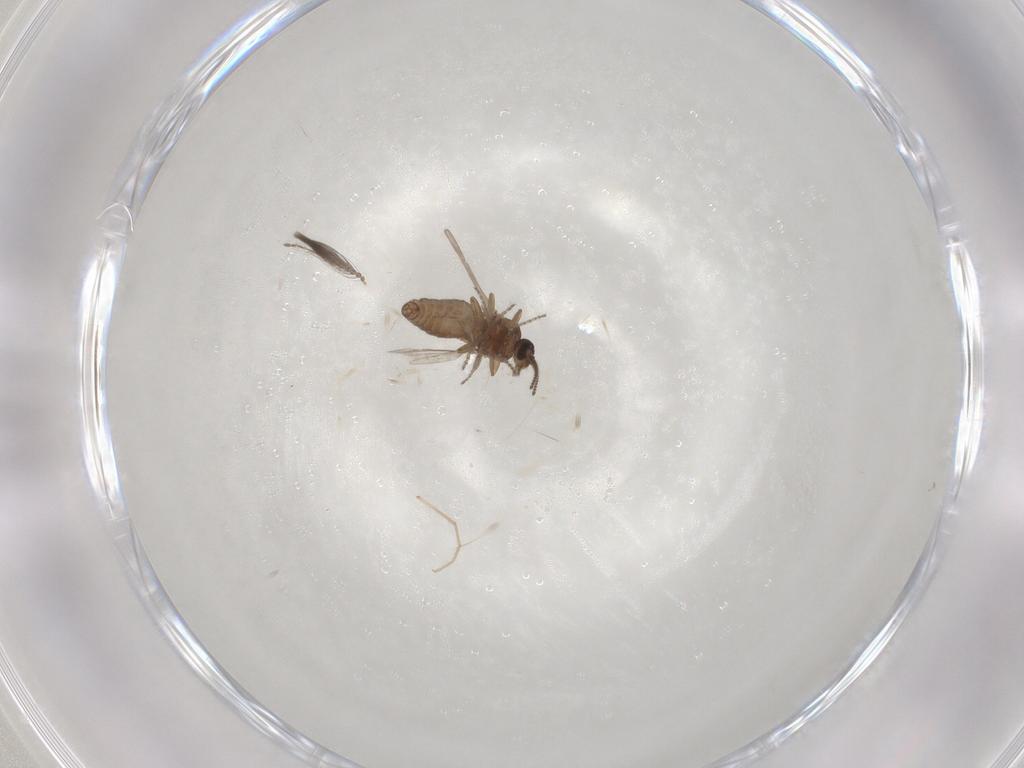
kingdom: Animalia
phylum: Arthropoda
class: Insecta
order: Diptera
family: Ceratopogonidae
